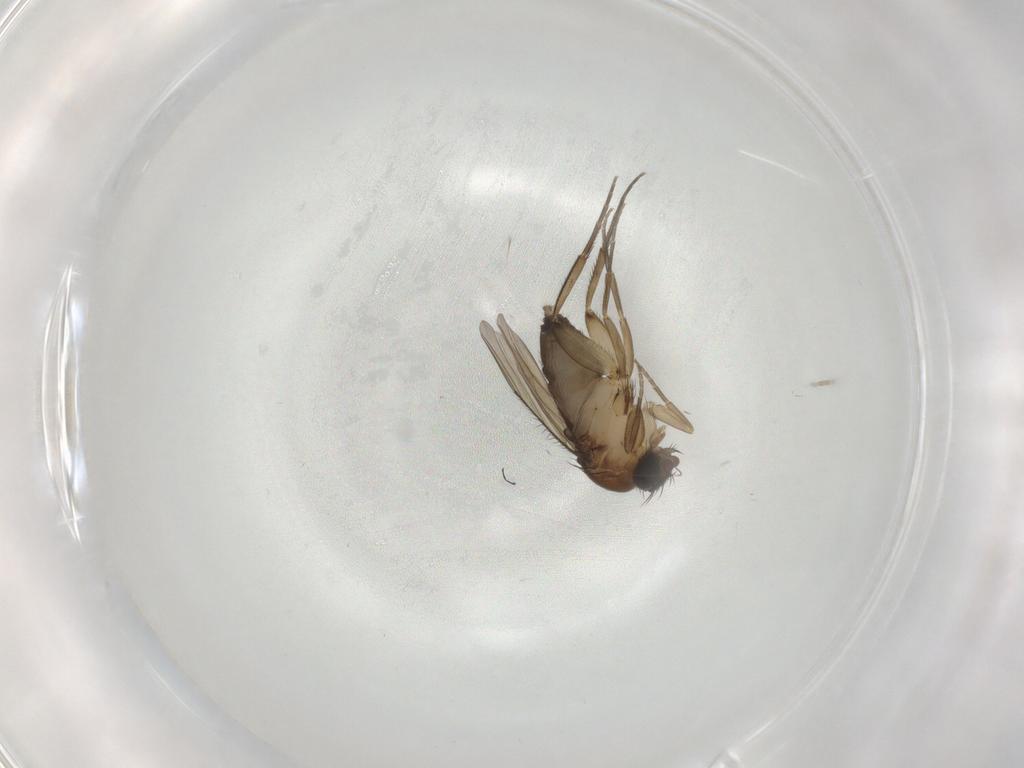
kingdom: Animalia
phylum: Arthropoda
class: Insecta
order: Diptera
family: Phoridae
